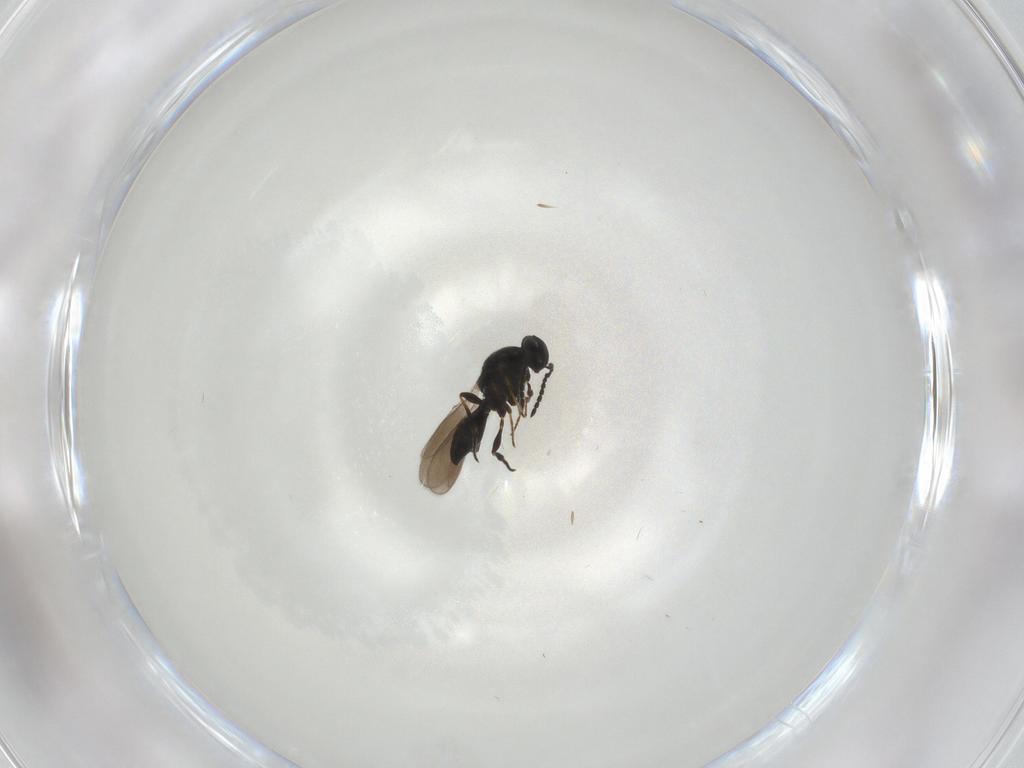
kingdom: Animalia
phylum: Arthropoda
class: Insecta
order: Hymenoptera
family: Platygastridae
